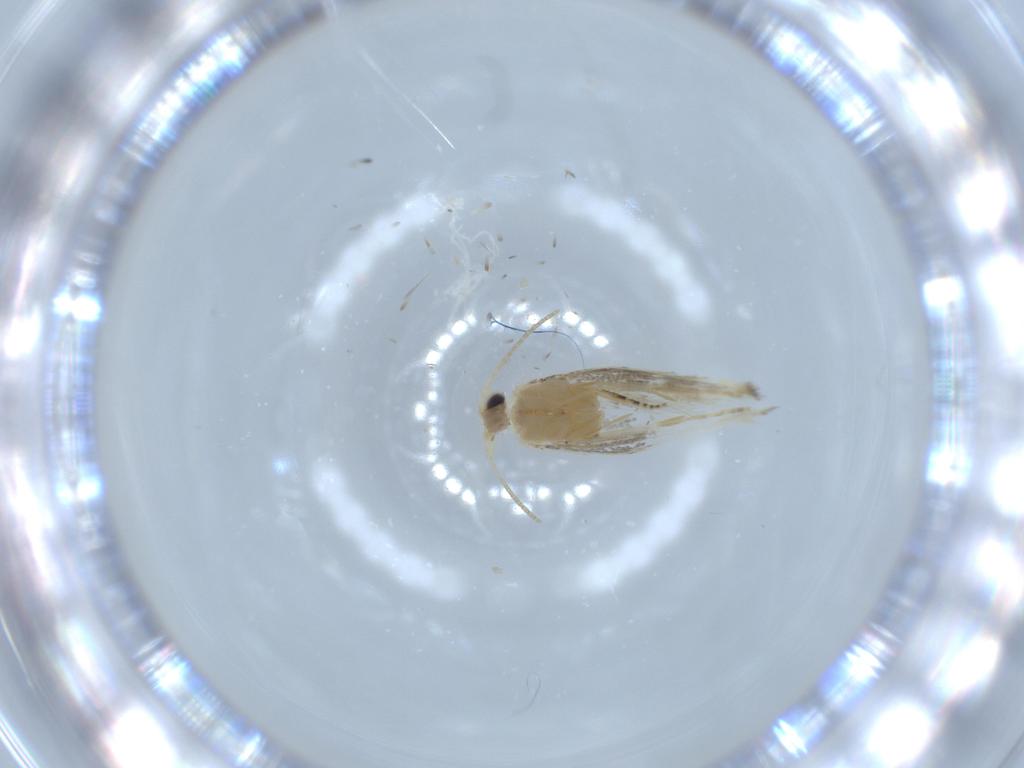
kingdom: Animalia
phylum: Arthropoda
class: Insecta
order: Lepidoptera
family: Bucculatricidae
